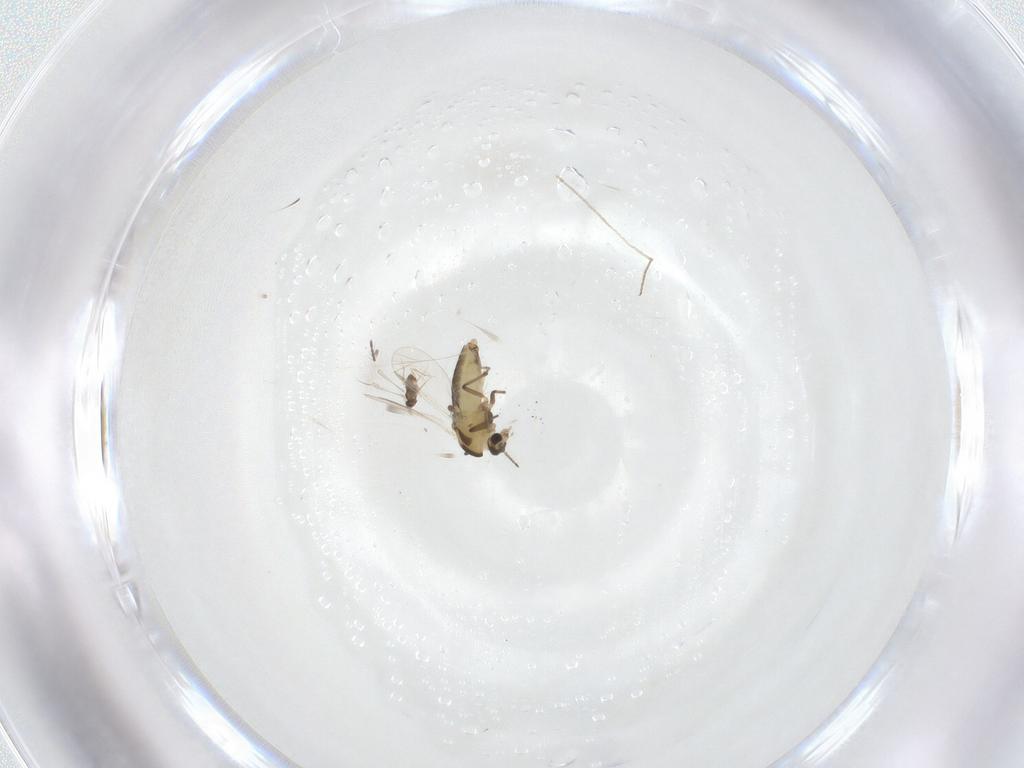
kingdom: Animalia
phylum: Arthropoda
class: Insecta
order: Diptera
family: Chironomidae
